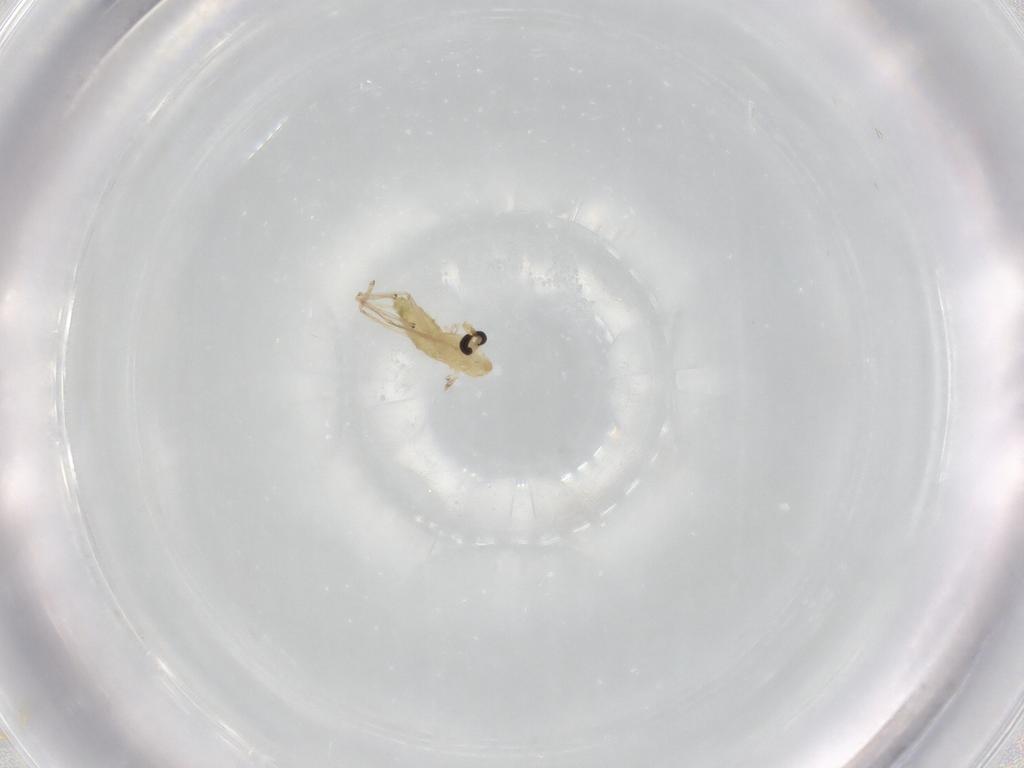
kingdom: Animalia
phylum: Arthropoda
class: Insecta
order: Diptera
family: Chironomidae
